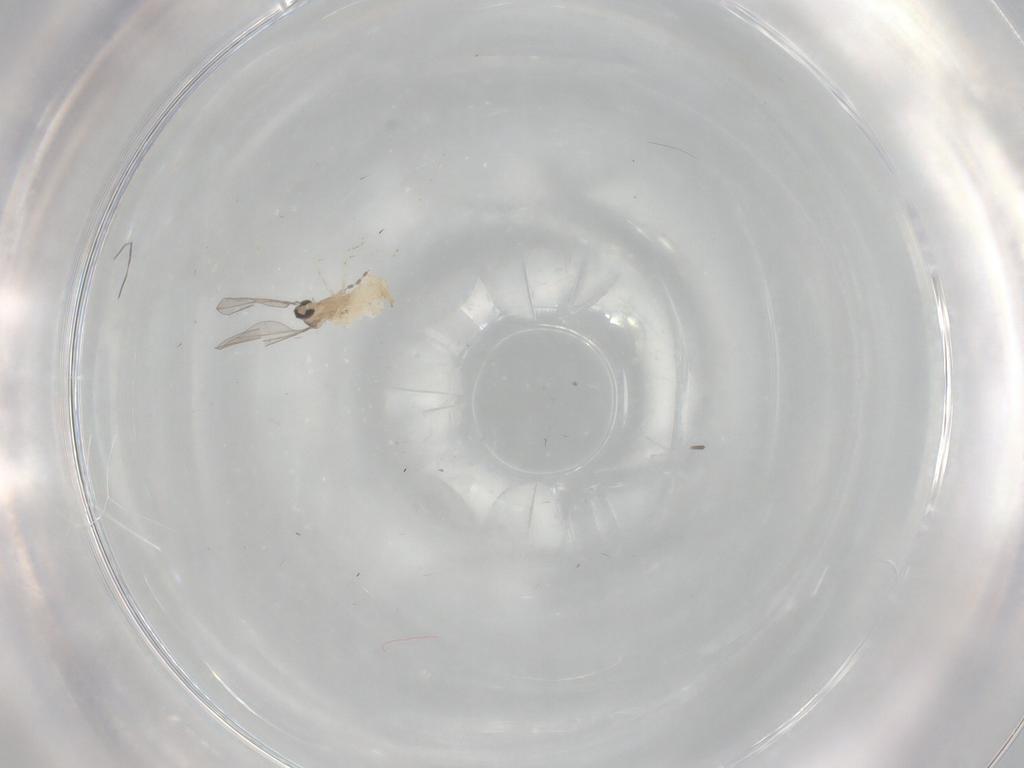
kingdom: Animalia
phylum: Arthropoda
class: Insecta
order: Diptera
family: Cecidomyiidae
